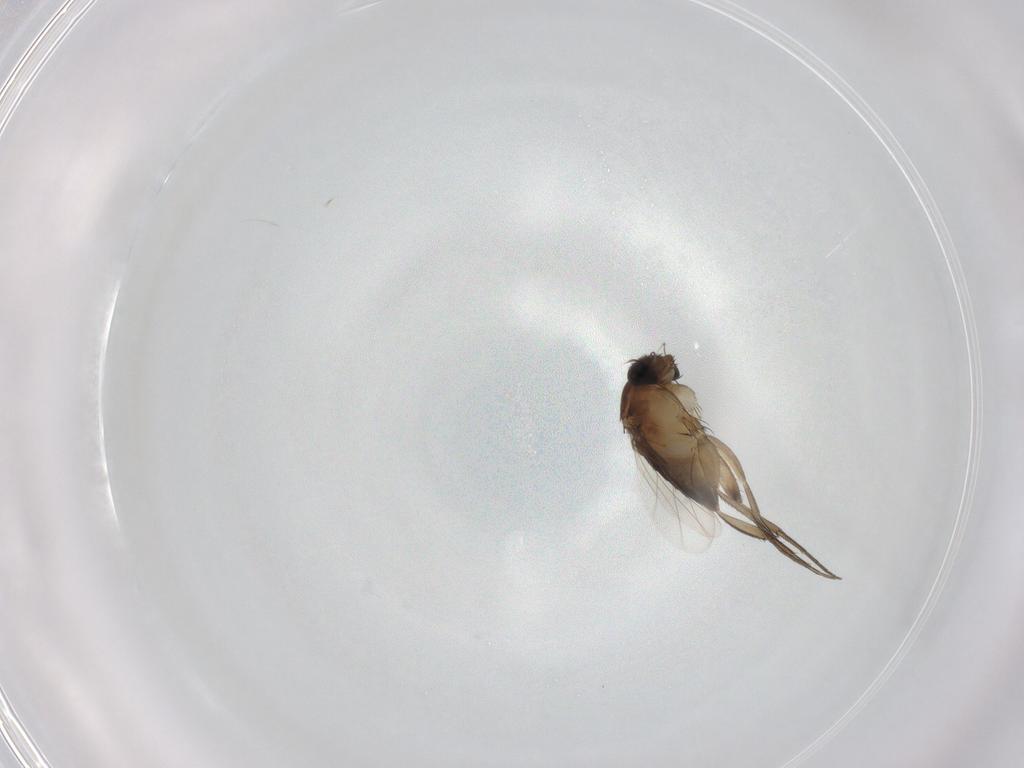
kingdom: Animalia
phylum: Arthropoda
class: Insecta
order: Diptera
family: Phoridae
